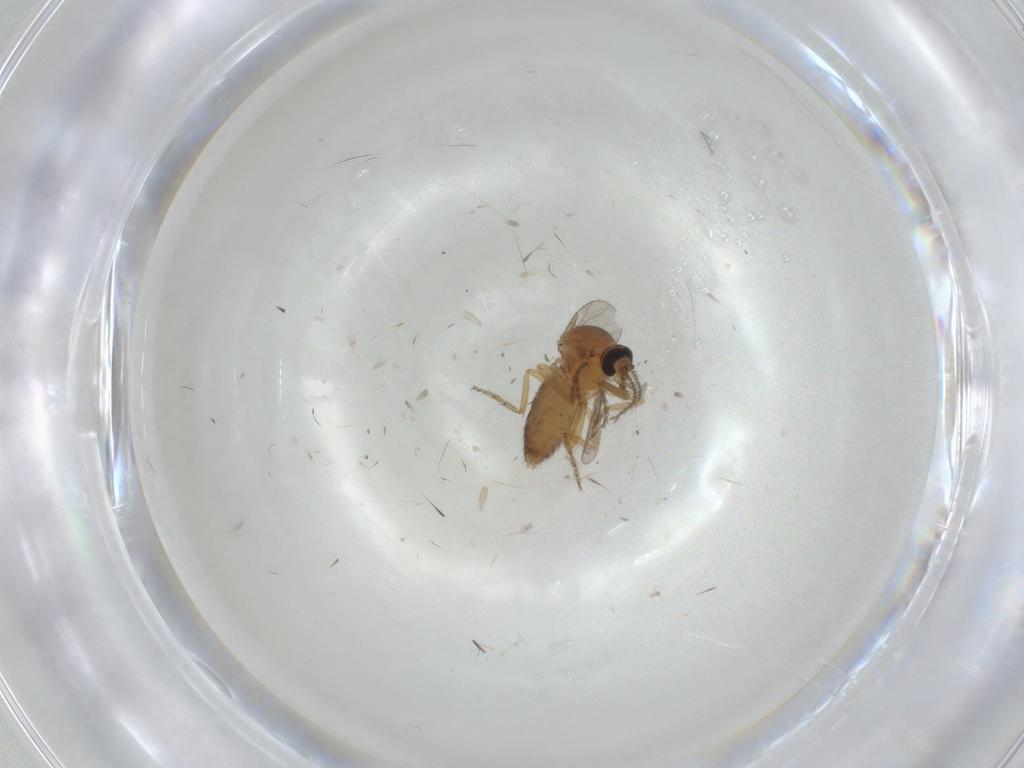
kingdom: Animalia
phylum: Arthropoda
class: Insecta
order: Diptera
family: Ceratopogonidae
